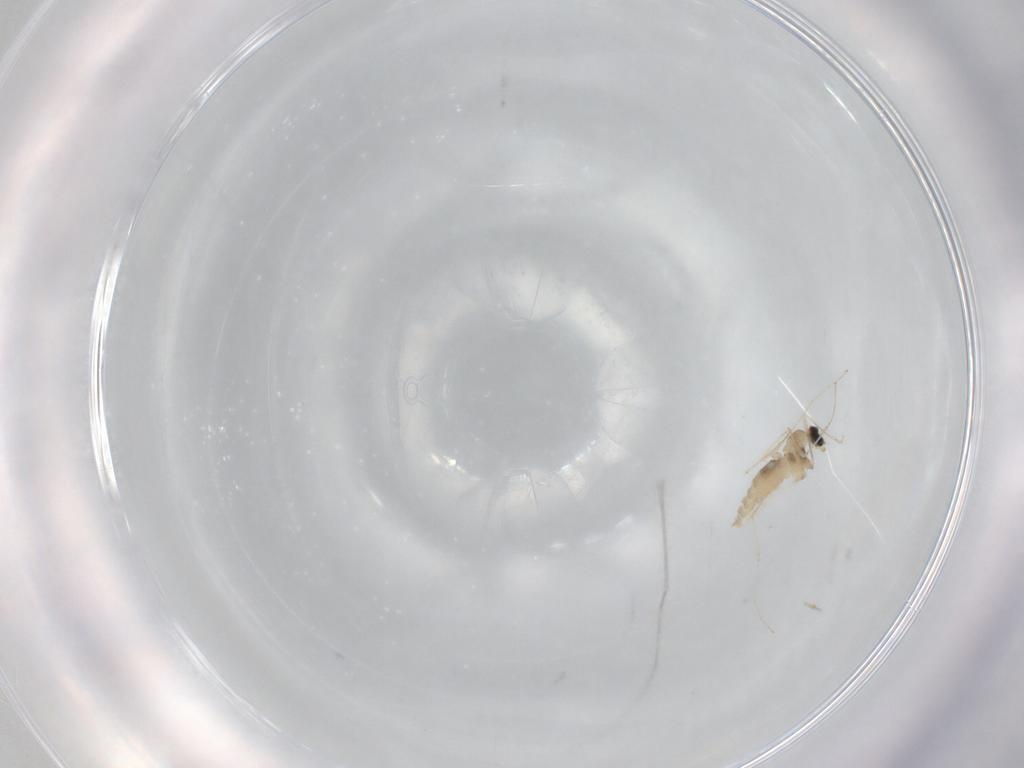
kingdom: Animalia
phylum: Arthropoda
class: Insecta
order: Diptera
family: Cecidomyiidae
